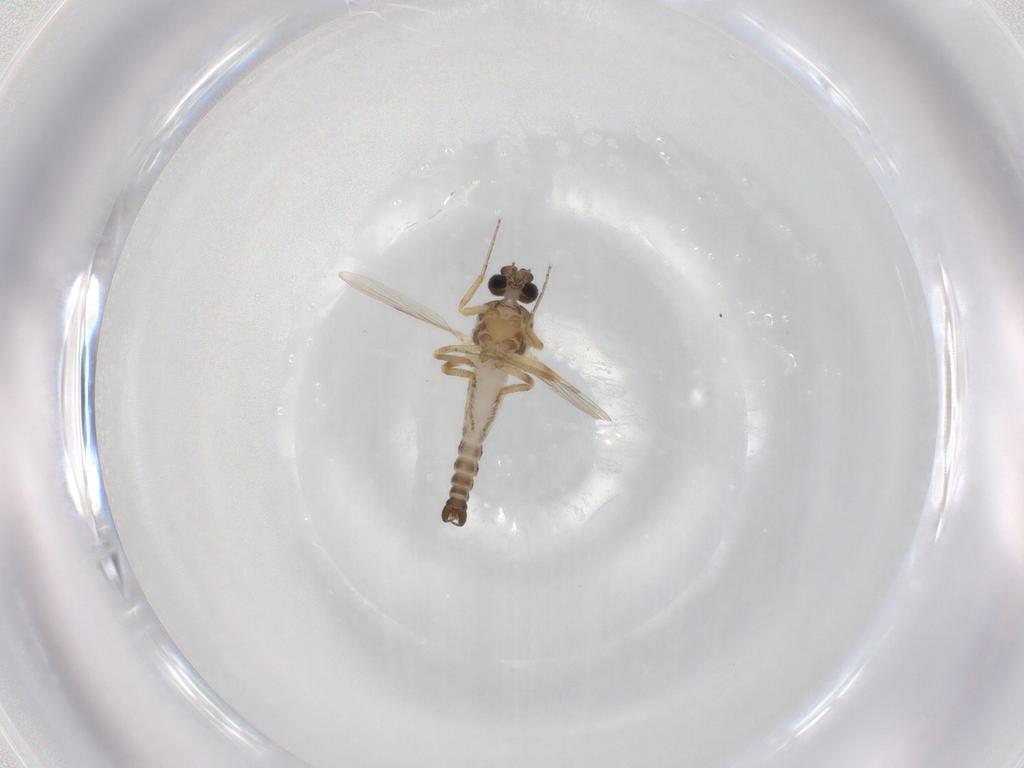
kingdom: Animalia
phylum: Arthropoda
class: Insecta
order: Diptera
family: Ceratopogonidae
